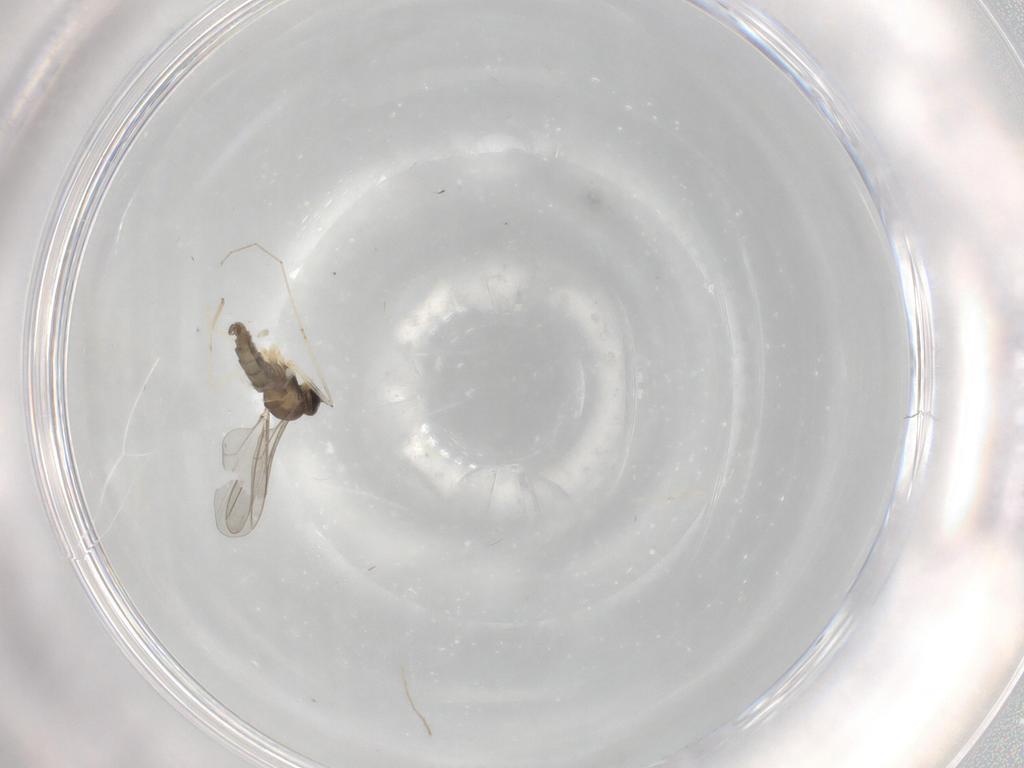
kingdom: Animalia
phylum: Arthropoda
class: Insecta
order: Diptera
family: Cecidomyiidae
